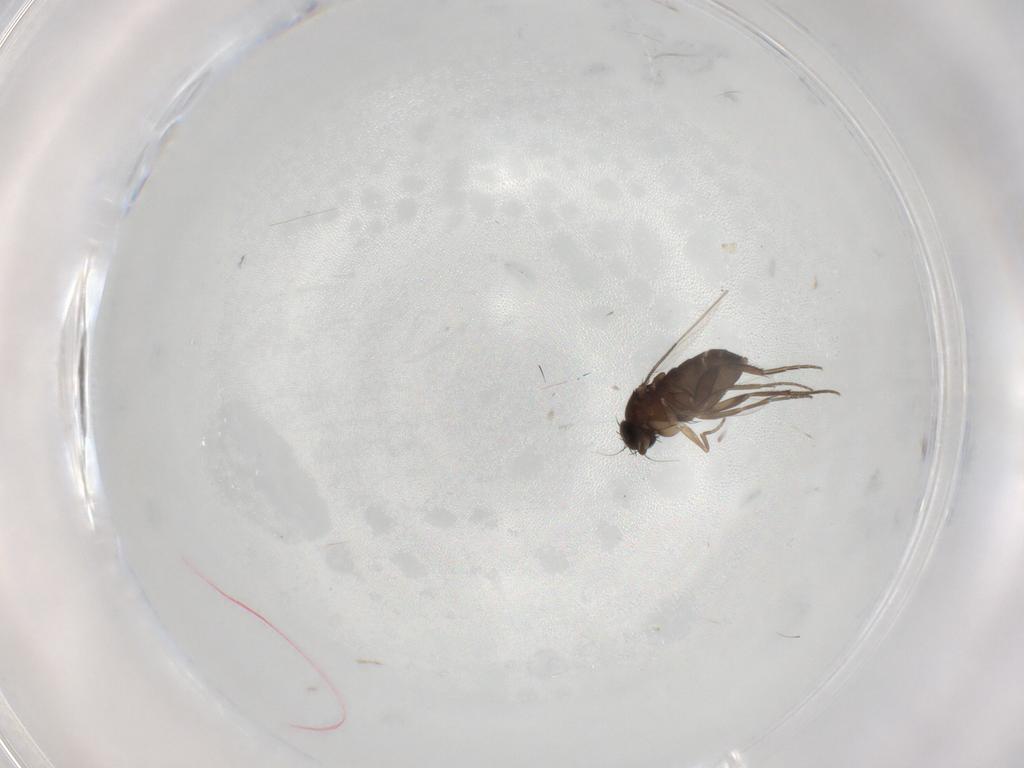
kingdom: Animalia
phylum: Arthropoda
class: Insecta
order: Diptera
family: Phoridae
